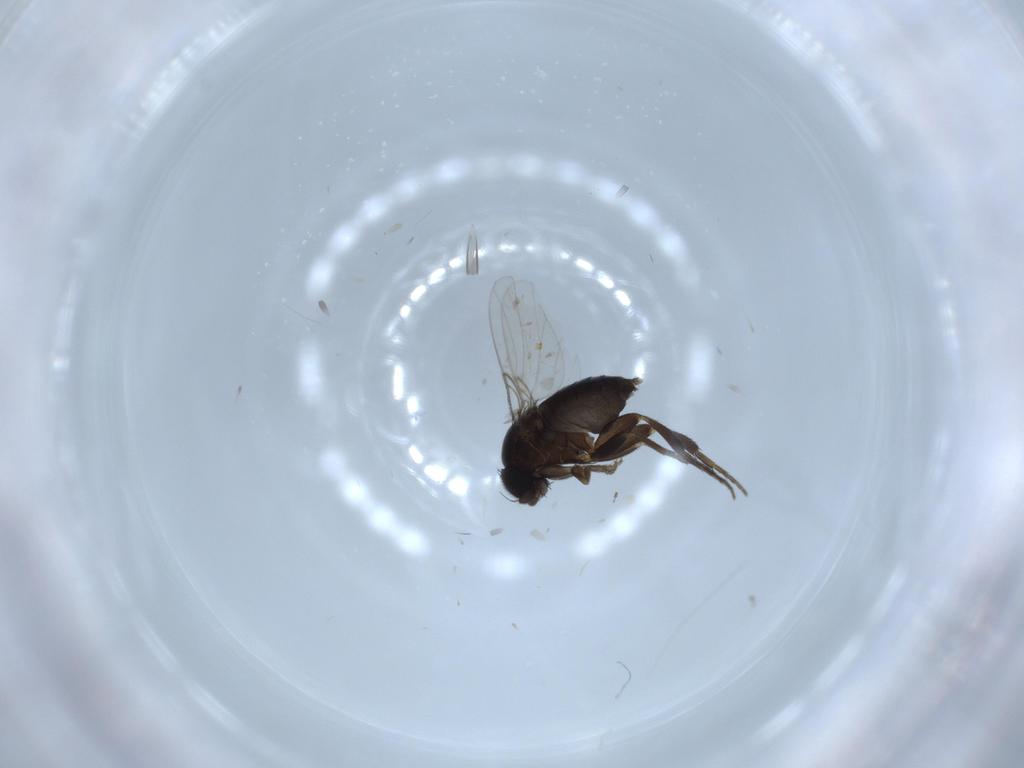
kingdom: Animalia
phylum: Arthropoda
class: Insecta
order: Diptera
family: Phoridae
